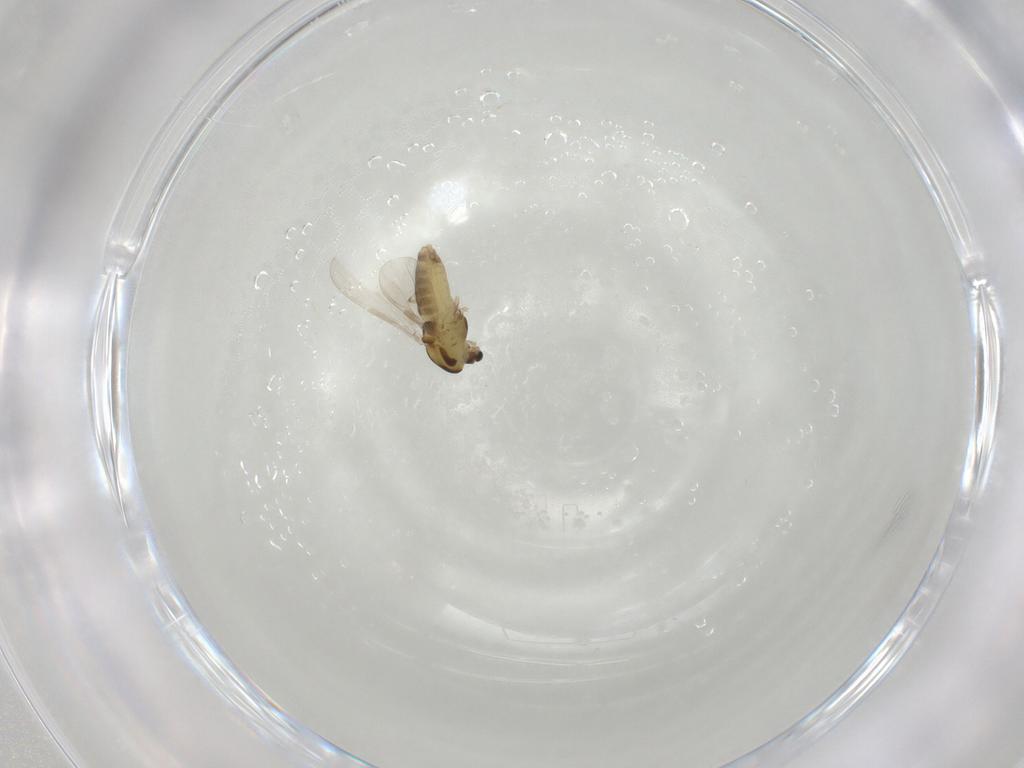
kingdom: Animalia
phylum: Arthropoda
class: Insecta
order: Diptera
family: Chironomidae
